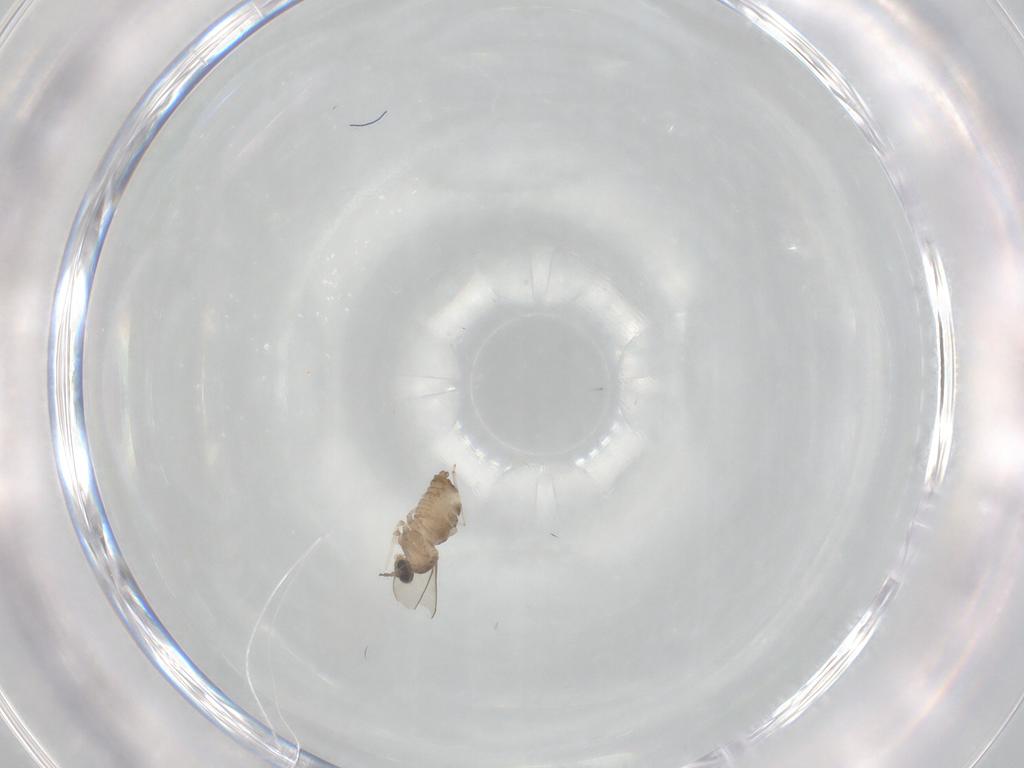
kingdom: Animalia
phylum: Arthropoda
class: Insecta
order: Diptera
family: Cecidomyiidae
